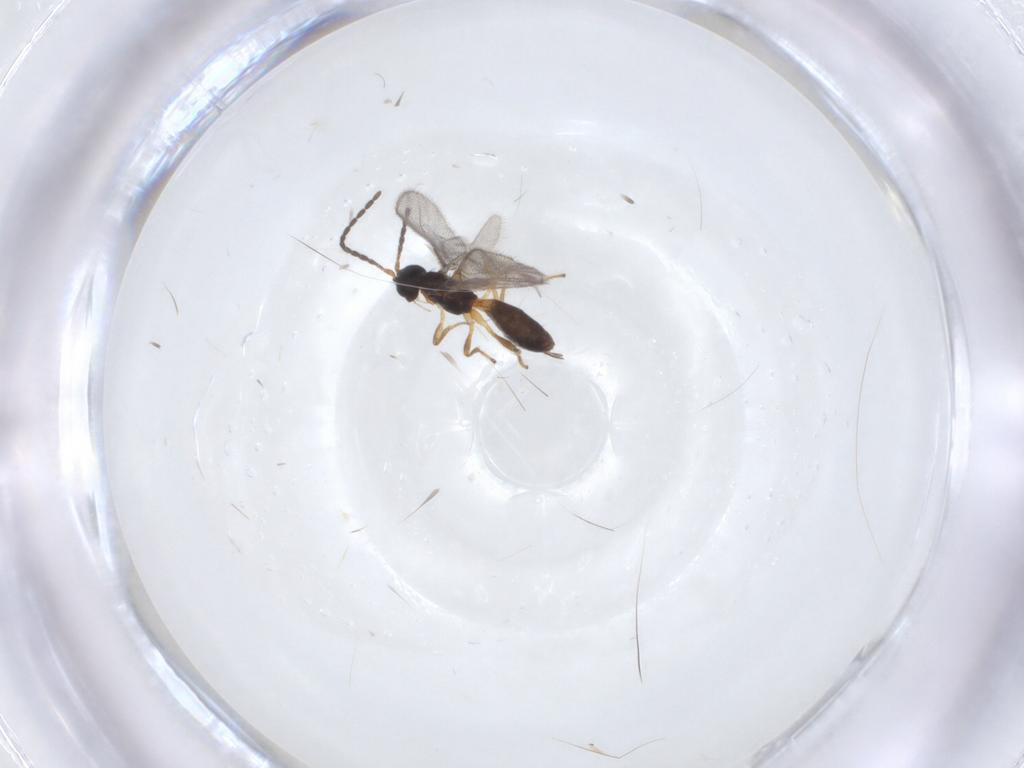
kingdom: Animalia
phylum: Arthropoda
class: Insecta
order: Hymenoptera
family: Braconidae
